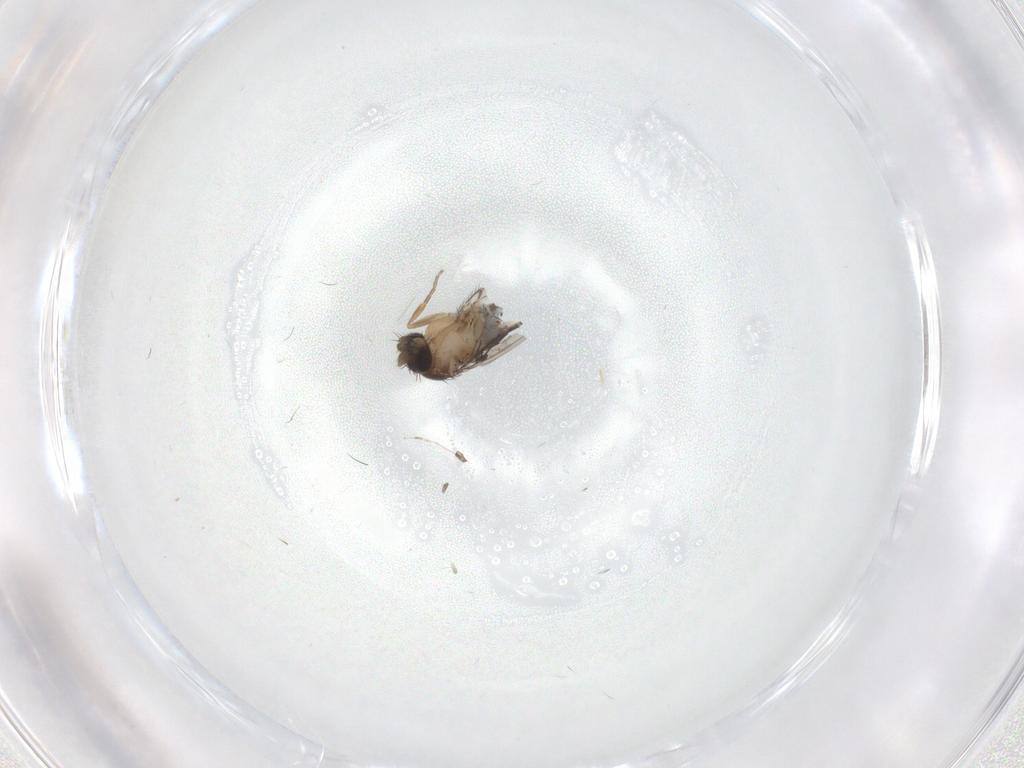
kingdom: Animalia
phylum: Arthropoda
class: Insecta
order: Diptera
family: Cecidomyiidae
